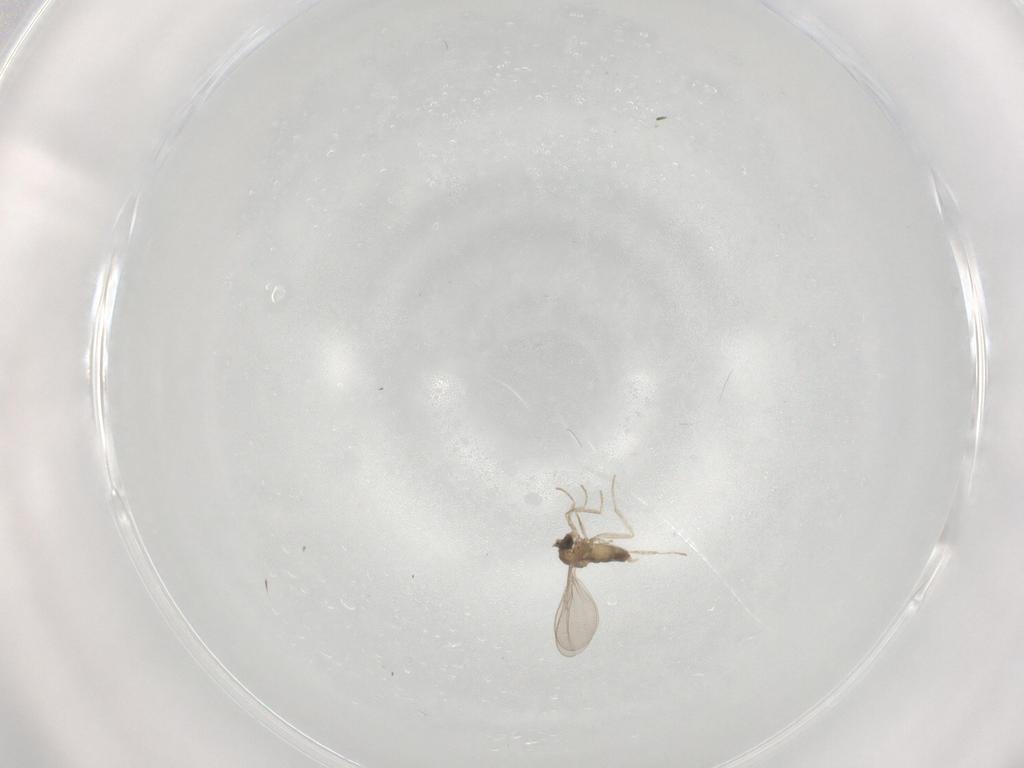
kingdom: Animalia
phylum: Arthropoda
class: Insecta
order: Diptera
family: Cecidomyiidae
